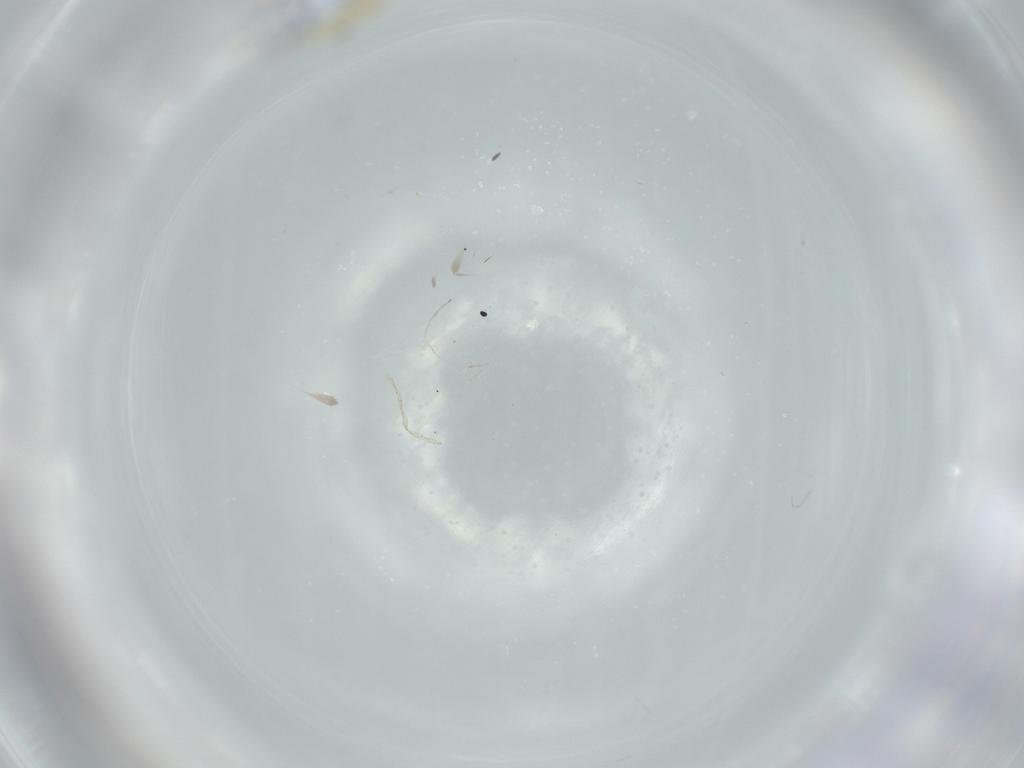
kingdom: Animalia
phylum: Arthropoda
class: Insecta
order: Diptera
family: Chironomidae
